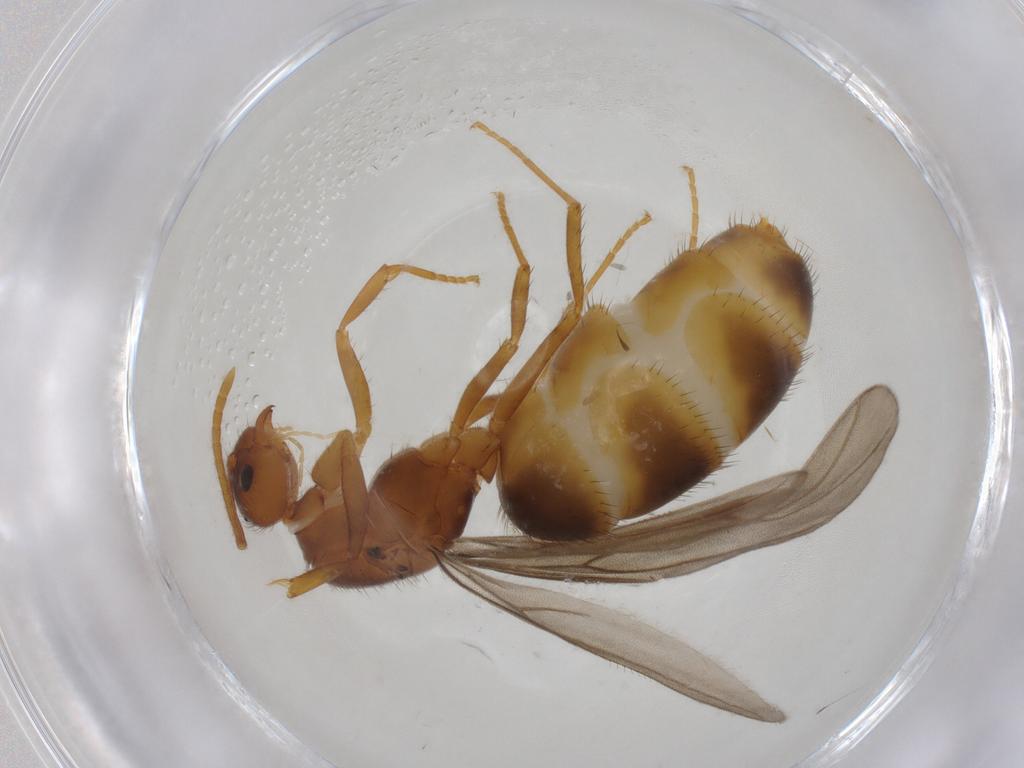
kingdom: Animalia
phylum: Arthropoda
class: Insecta
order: Hymenoptera
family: Formicidae
